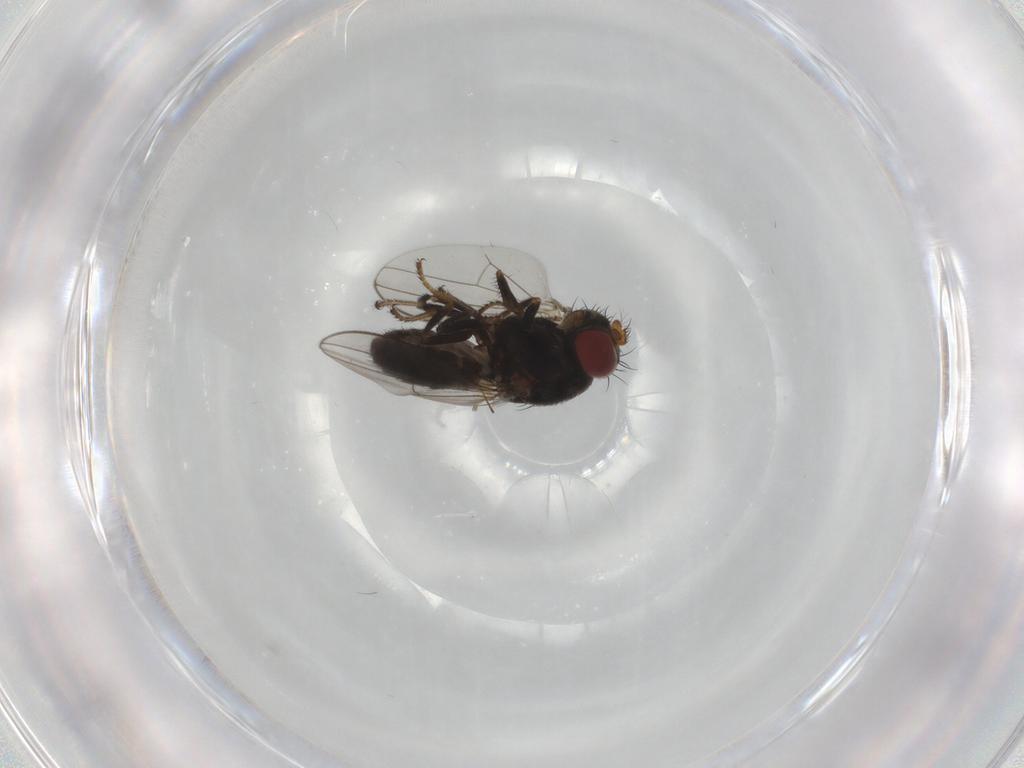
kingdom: Animalia
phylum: Arthropoda
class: Insecta
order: Diptera
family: Ephydridae
